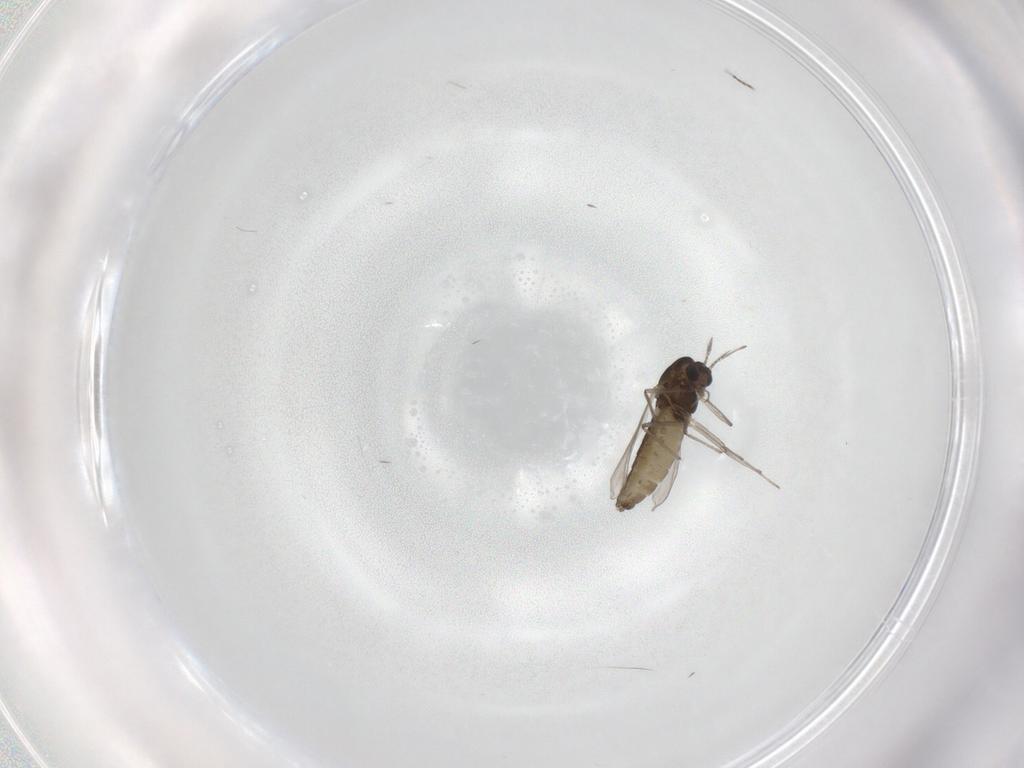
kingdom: Animalia
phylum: Arthropoda
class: Insecta
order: Diptera
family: Chironomidae
